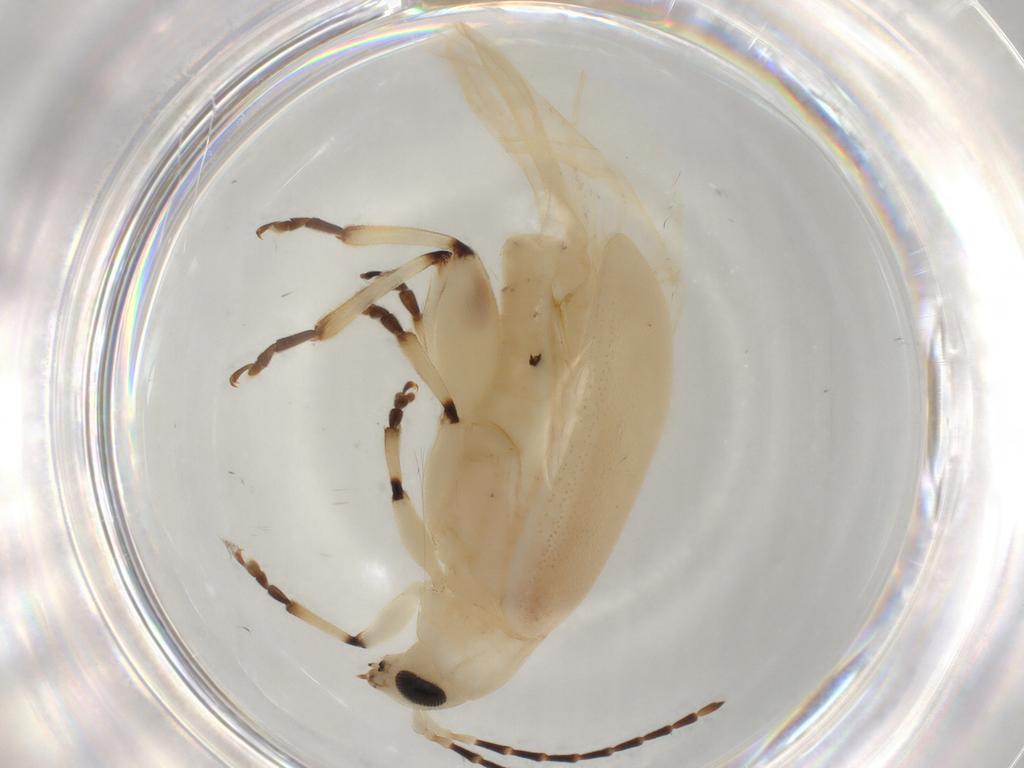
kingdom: Animalia
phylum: Arthropoda
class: Insecta
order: Coleoptera
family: Chrysomelidae
